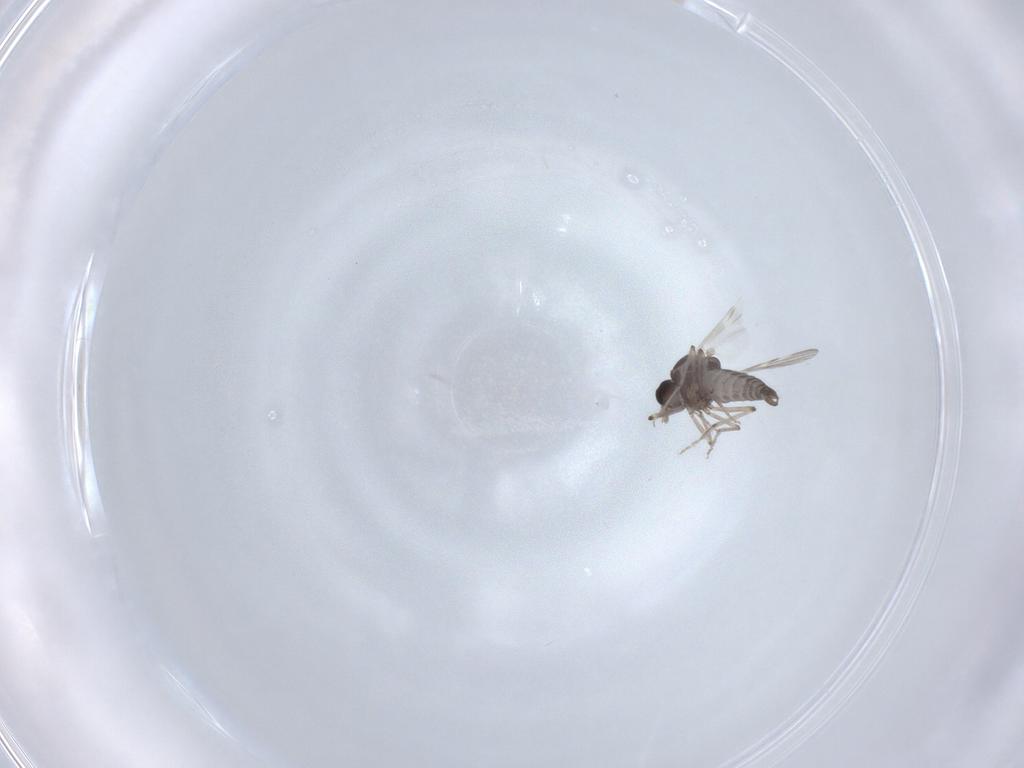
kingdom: Animalia
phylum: Arthropoda
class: Insecta
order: Diptera
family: Ceratopogonidae
